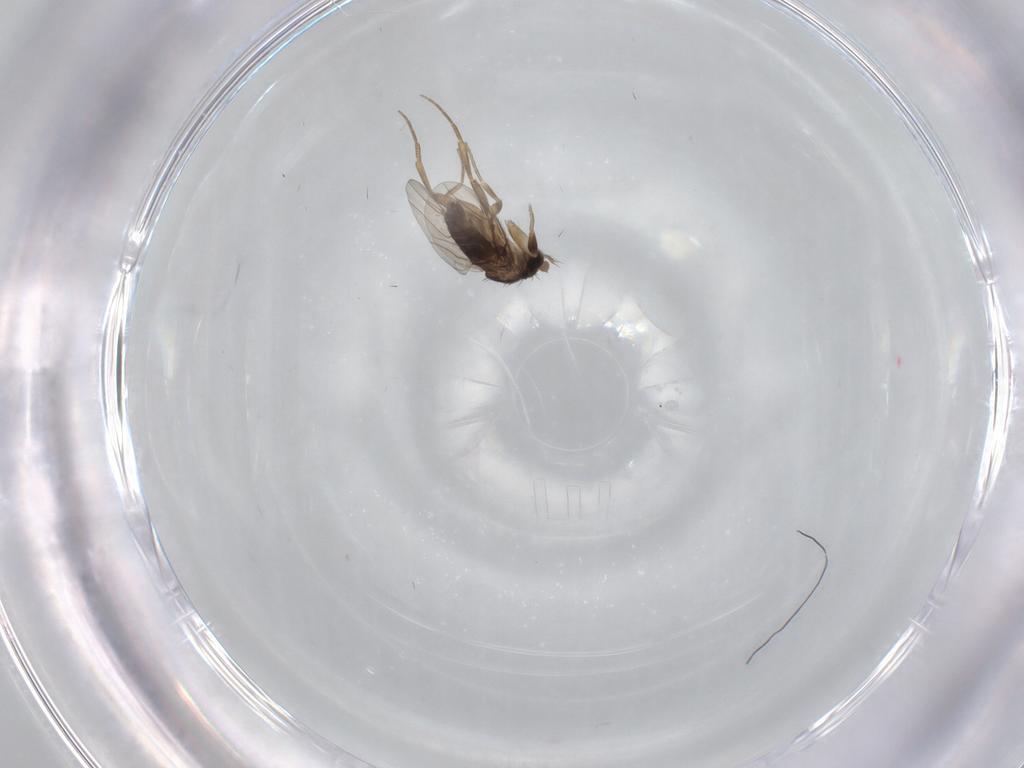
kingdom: Animalia
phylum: Arthropoda
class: Insecta
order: Diptera
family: Phoridae
